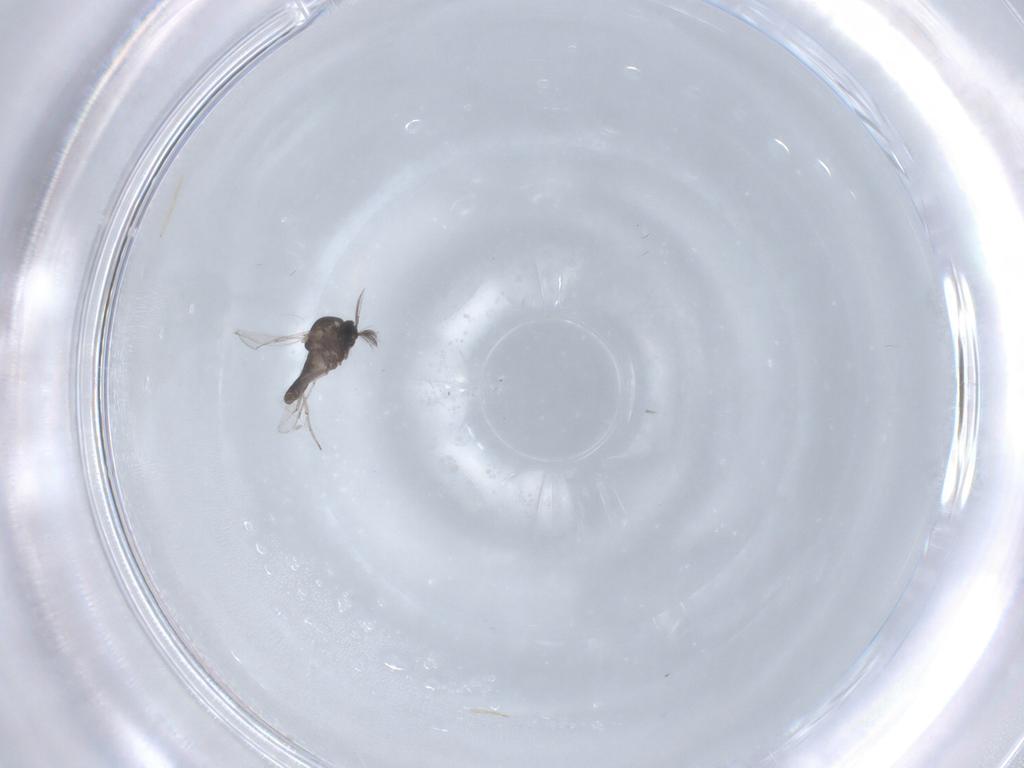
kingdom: Animalia
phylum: Arthropoda
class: Insecta
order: Diptera
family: Ceratopogonidae
